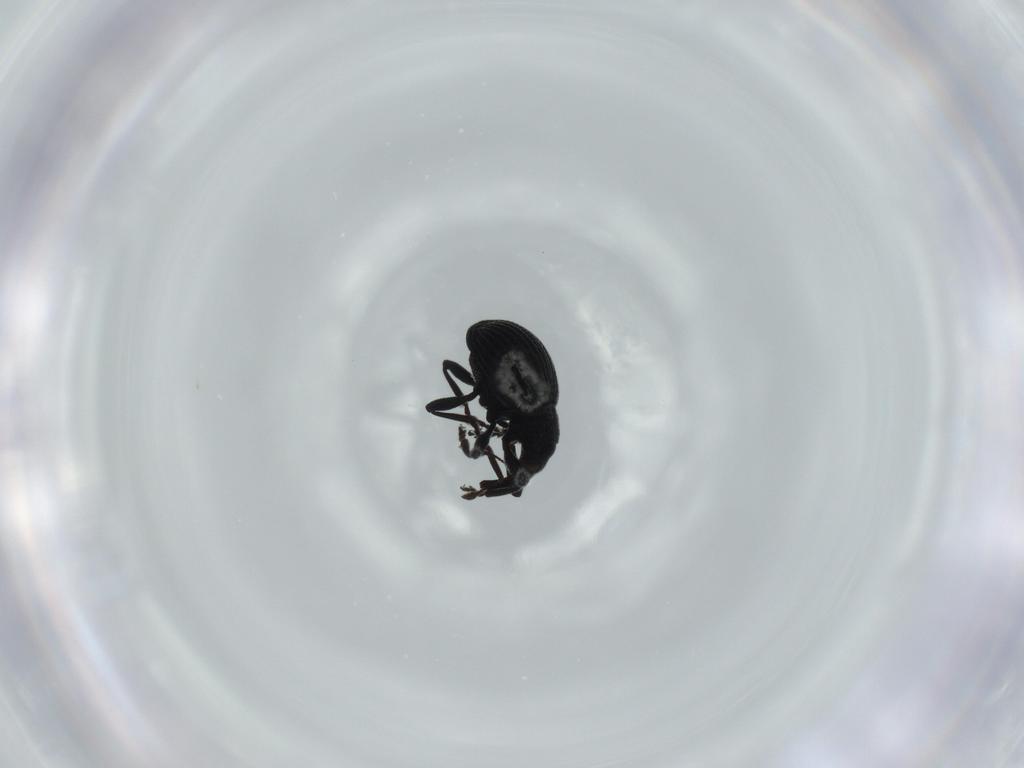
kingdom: Animalia
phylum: Arthropoda
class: Insecta
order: Coleoptera
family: Brentidae
